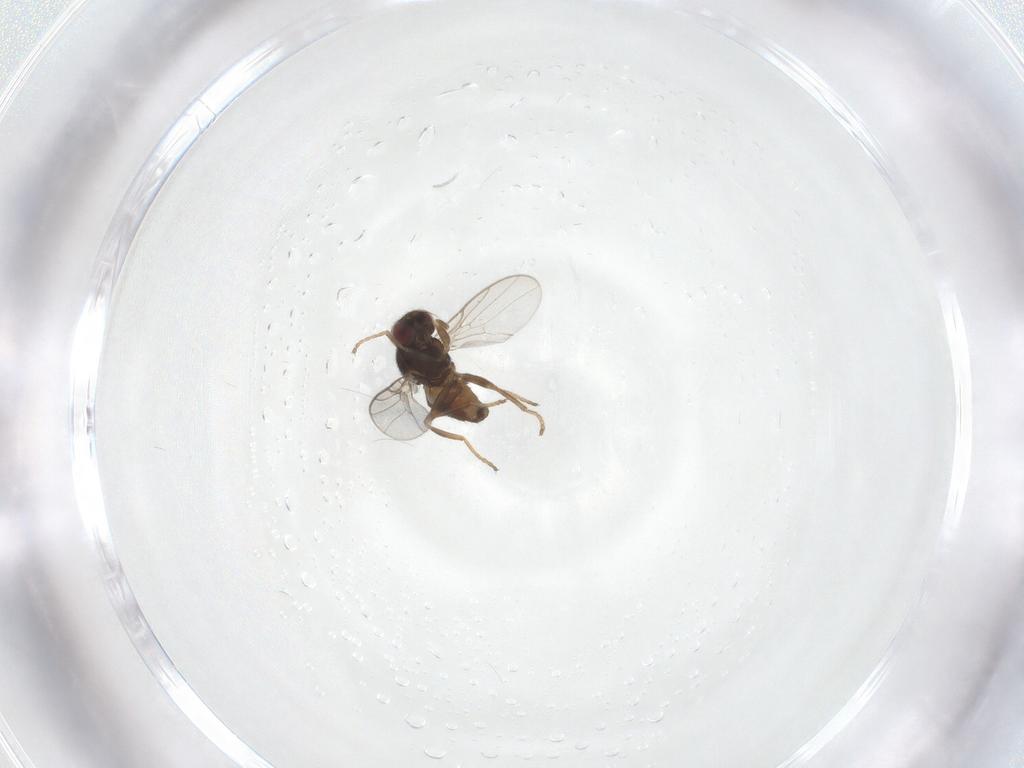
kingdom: Animalia
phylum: Arthropoda
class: Insecta
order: Diptera
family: Chloropidae
